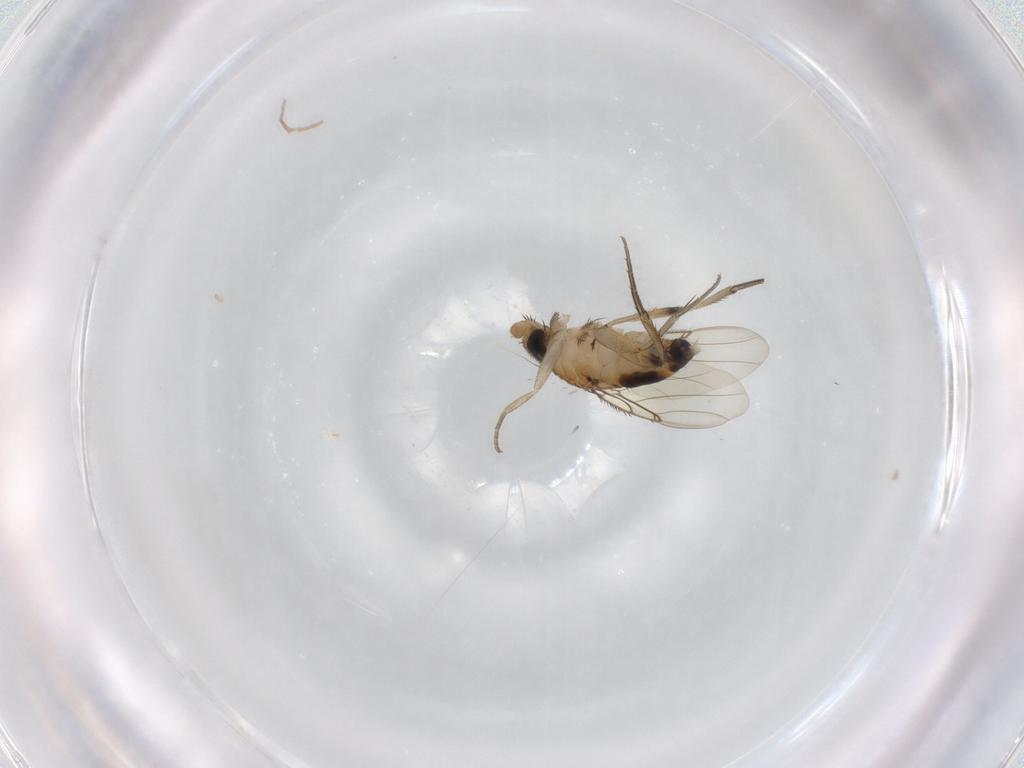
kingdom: Animalia
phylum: Arthropoda
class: Insecta
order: Diptera
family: Phoridae
